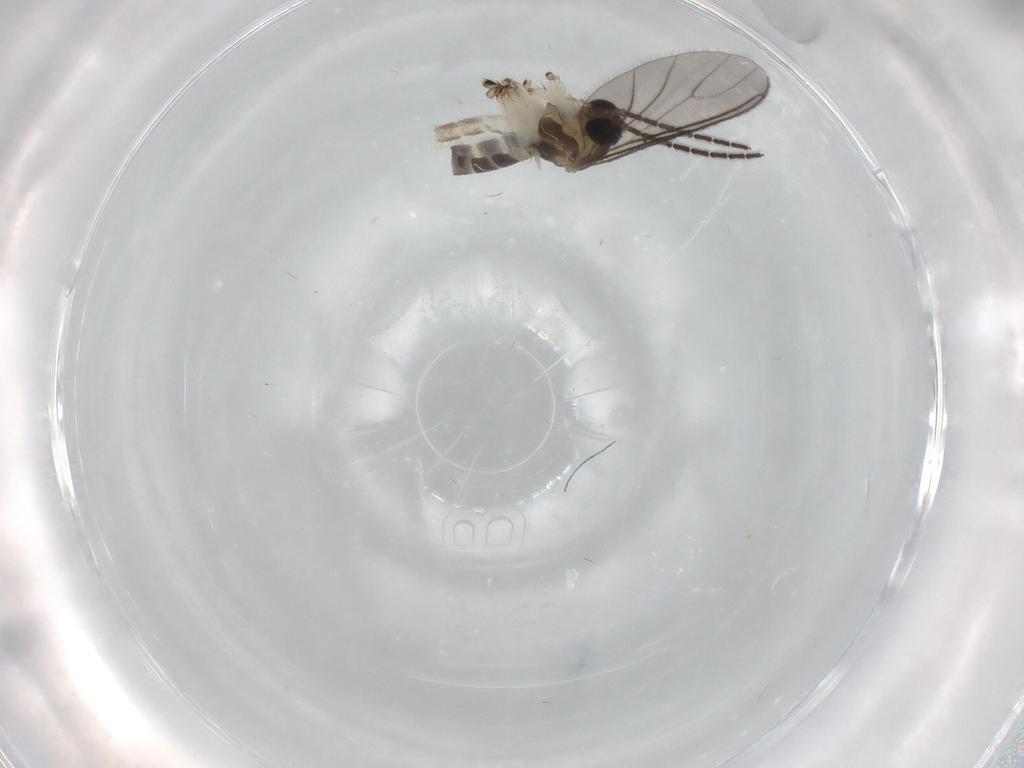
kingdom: Animalia
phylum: Arthropoda
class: Insecta
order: Diptera
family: Sciaridae
